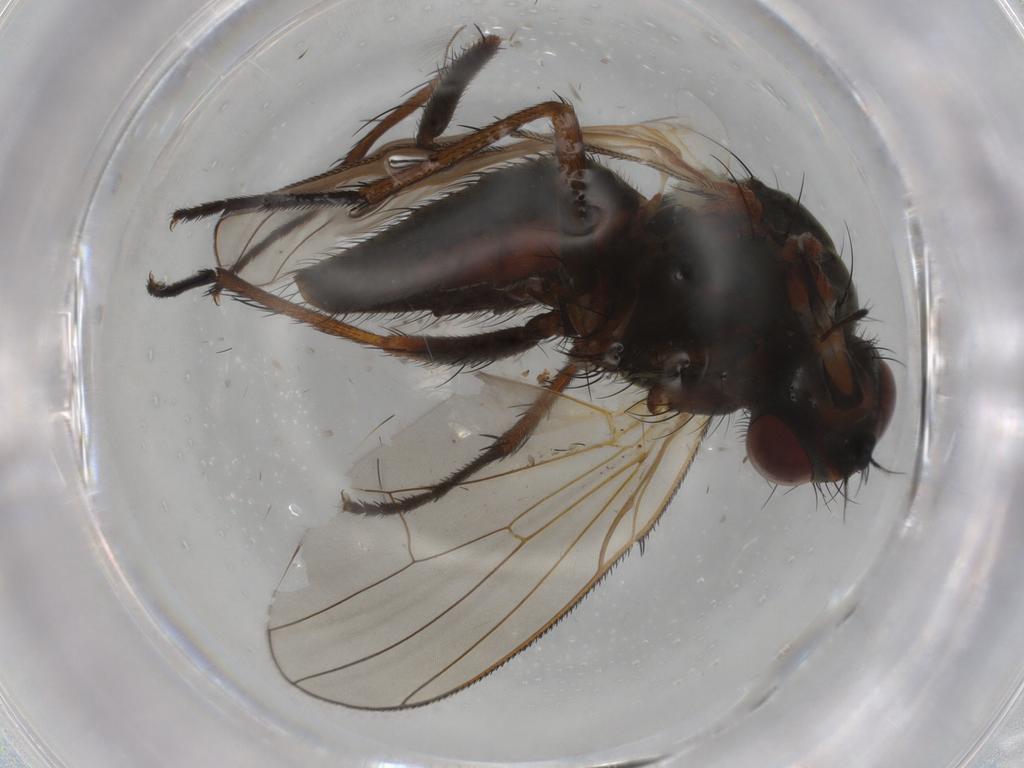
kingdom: Animalia
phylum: Arthropoda
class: Insecta
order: Diptera
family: Anthomyiidae
